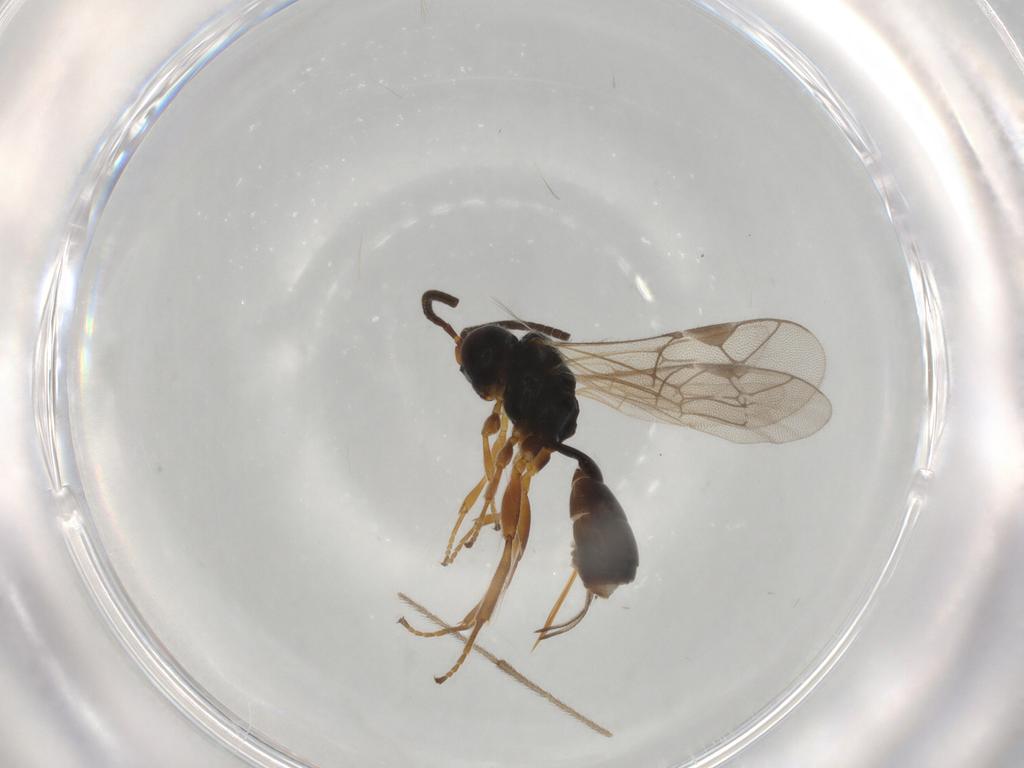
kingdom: Animalia
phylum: Arthropoda
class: Insecta
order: Hymenoptera
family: Ichneumonidae
